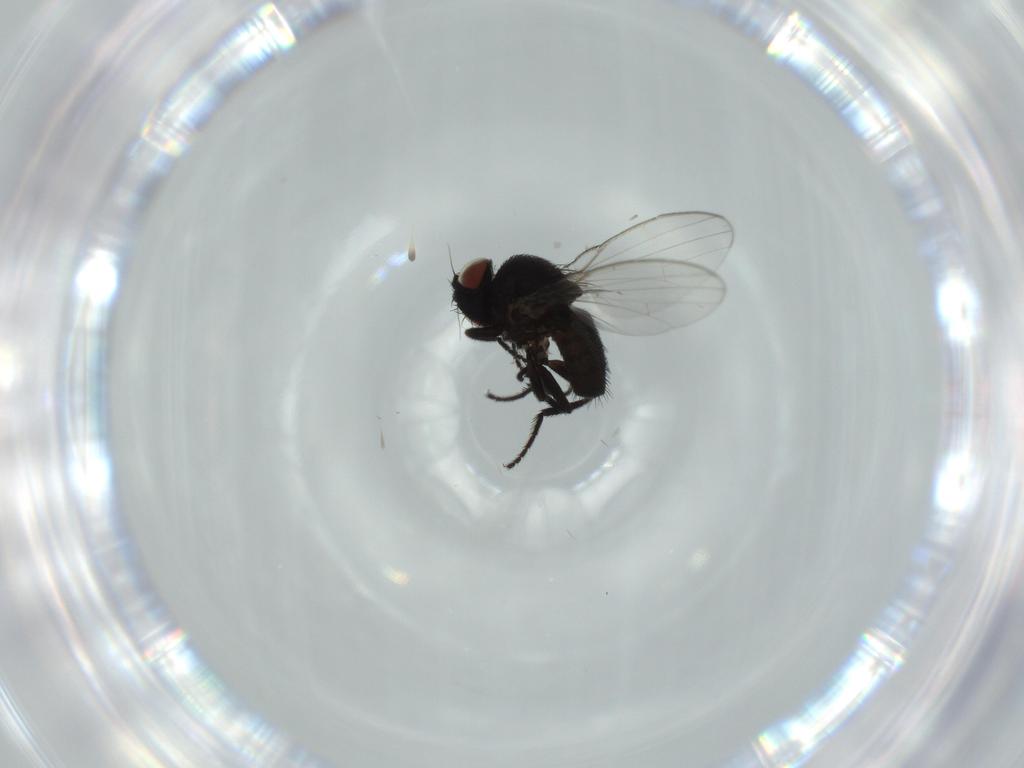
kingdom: Animalia
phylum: Arthropoda
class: Insecta
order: Diptera
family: Milichiidae
